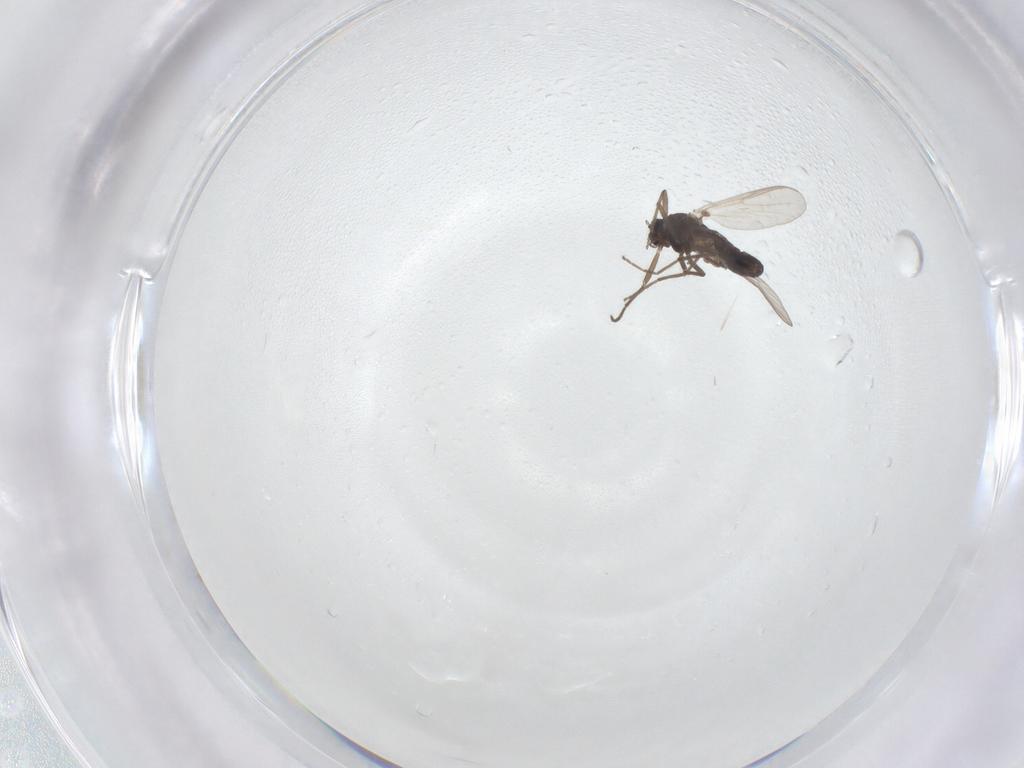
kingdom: Animalia
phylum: Arthropoda
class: Insecta
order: Diptera
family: Chironomidae
